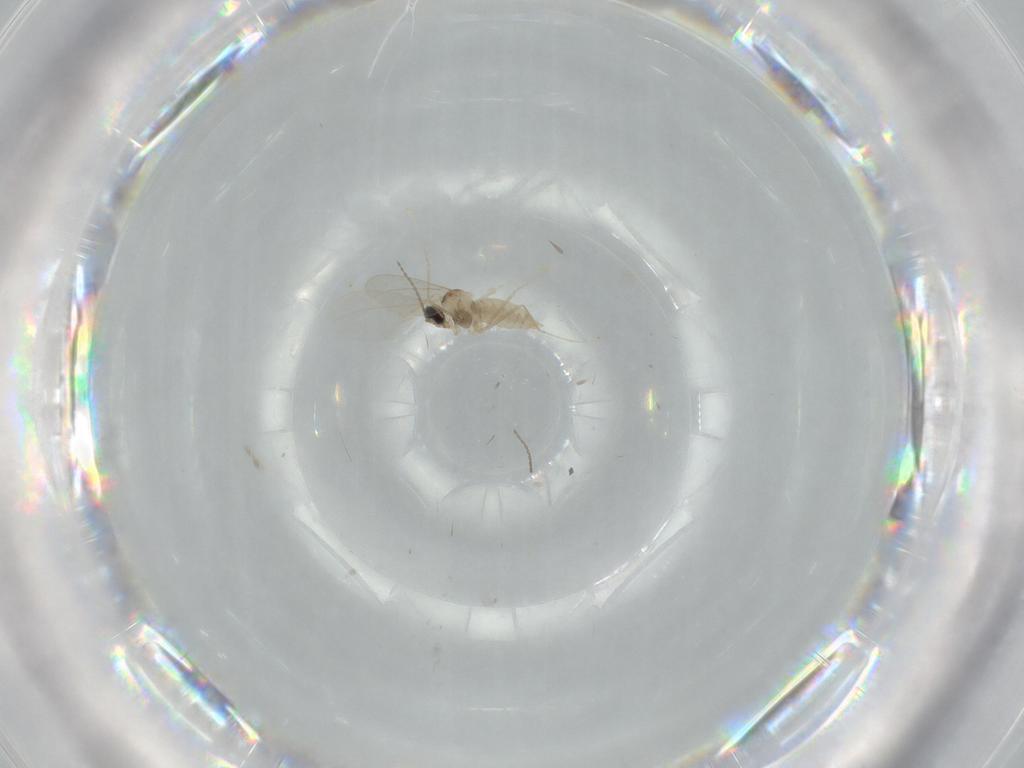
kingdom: Animalia
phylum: Arthropoda
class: Insecta
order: Diptera
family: Cecidomyiidae
